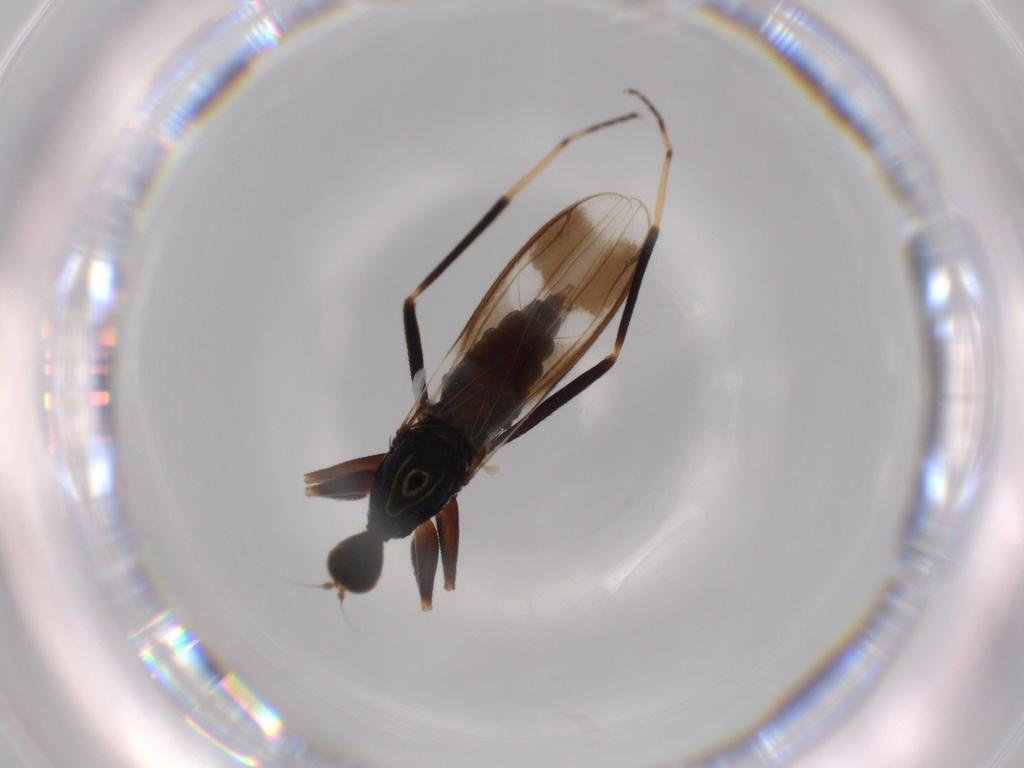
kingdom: Animalia
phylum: Arthropoda
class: Insecta
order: Diptera
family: Hybotidae
